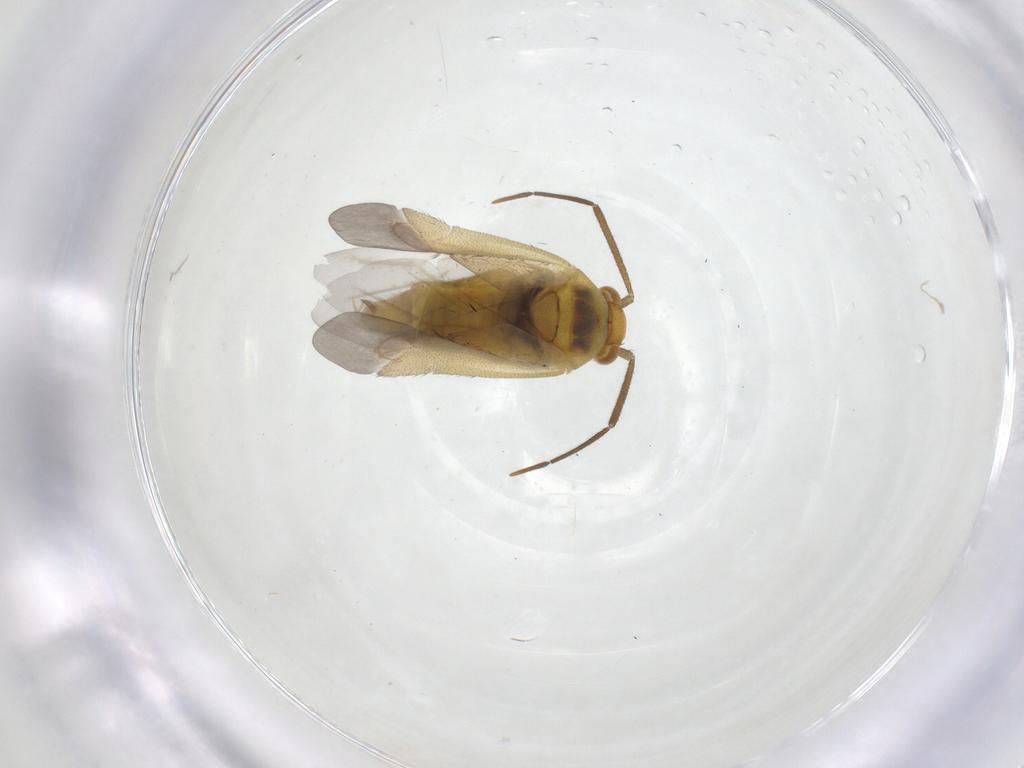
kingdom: Animalia
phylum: Arthropoda
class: Insecta
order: Hemiptera
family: Miridae
